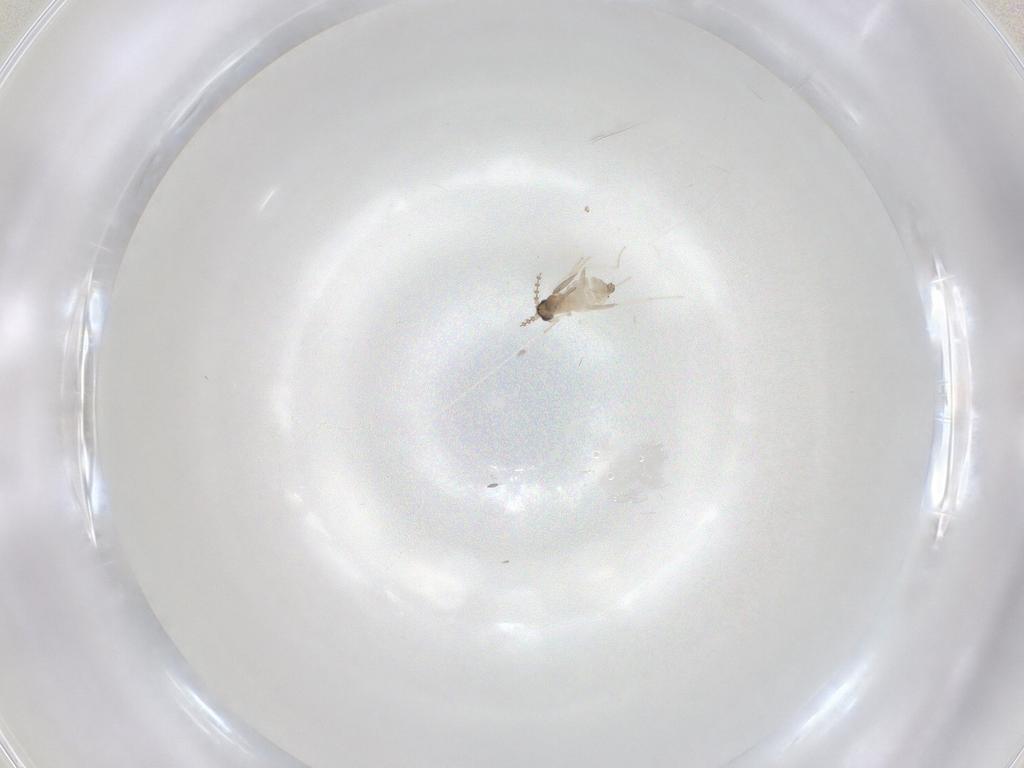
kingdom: Animalia
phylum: Arthropoda
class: Insecta
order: Diptera
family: Cecidomyiidae
